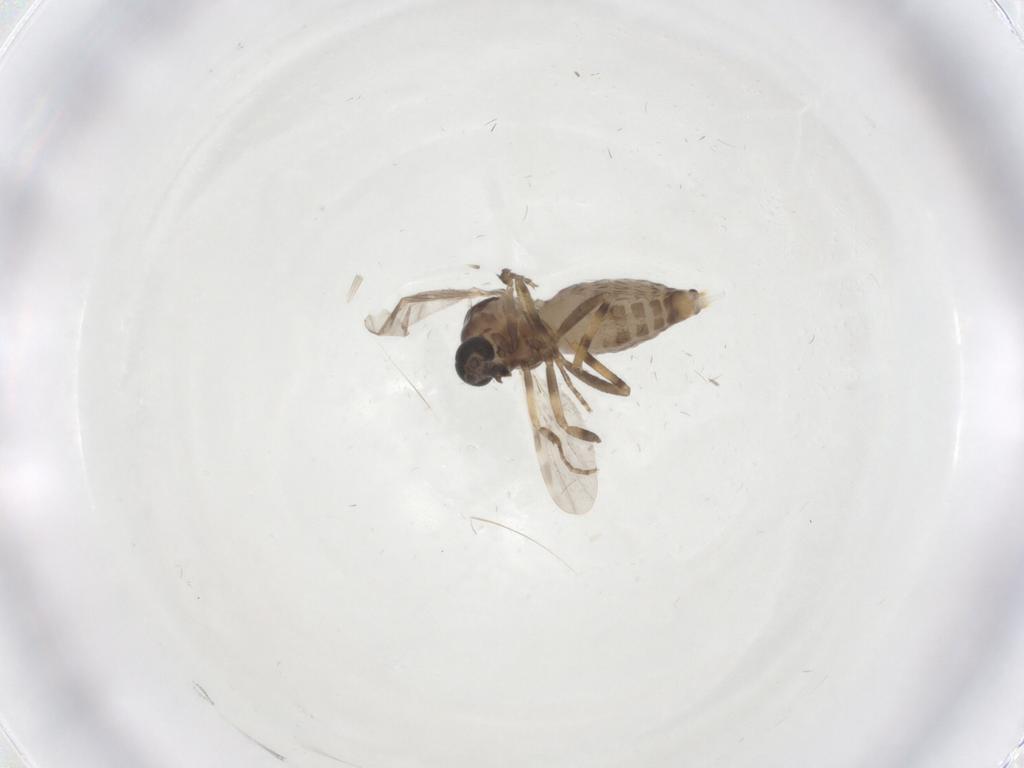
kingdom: Animalia
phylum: Arthropoda
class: Insecta
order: Diptera
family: Ceratopogonidae
